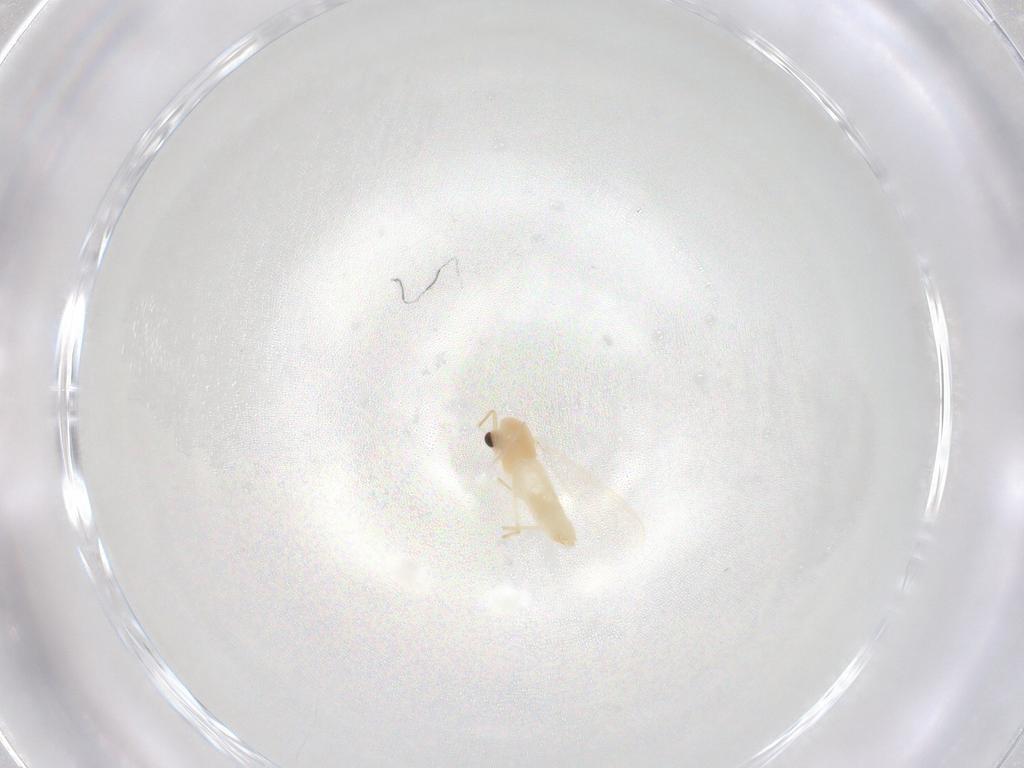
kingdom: Animalia
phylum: Arthropoda
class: Insecta
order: Diptera
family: Chironomidae
